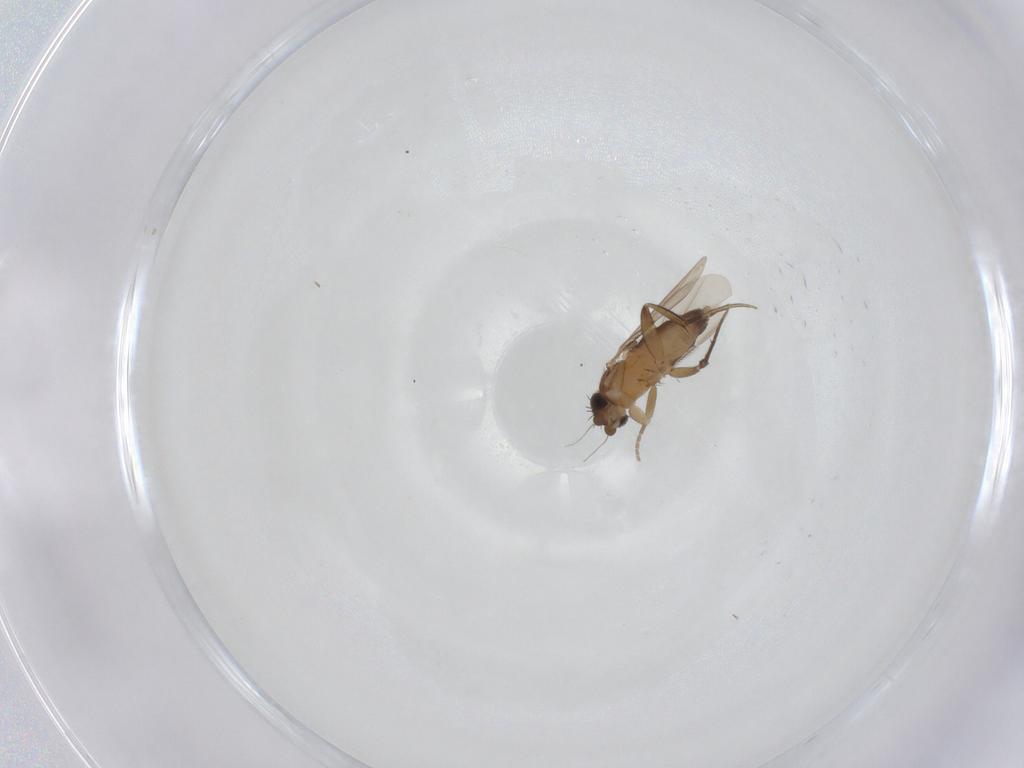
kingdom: Animalia
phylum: Arthropoda
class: Insecta
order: Diptera
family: Phoridae
